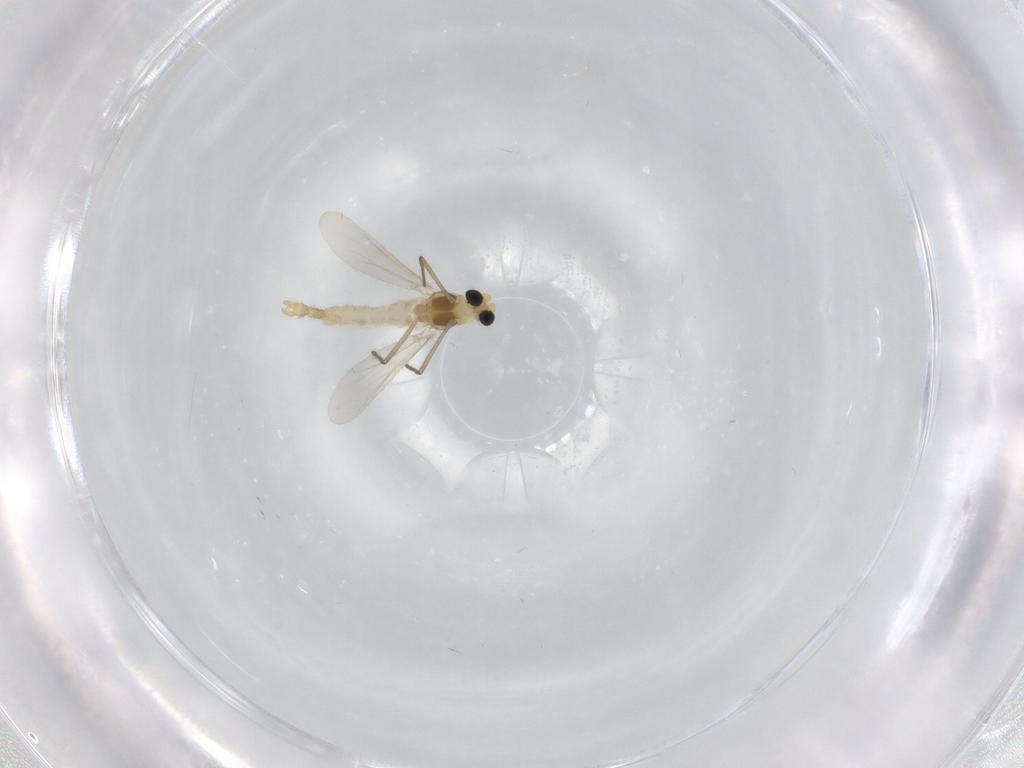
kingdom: Animalia
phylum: Arthropoda
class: Insecta
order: Diptera
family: Cecidomyiidae
